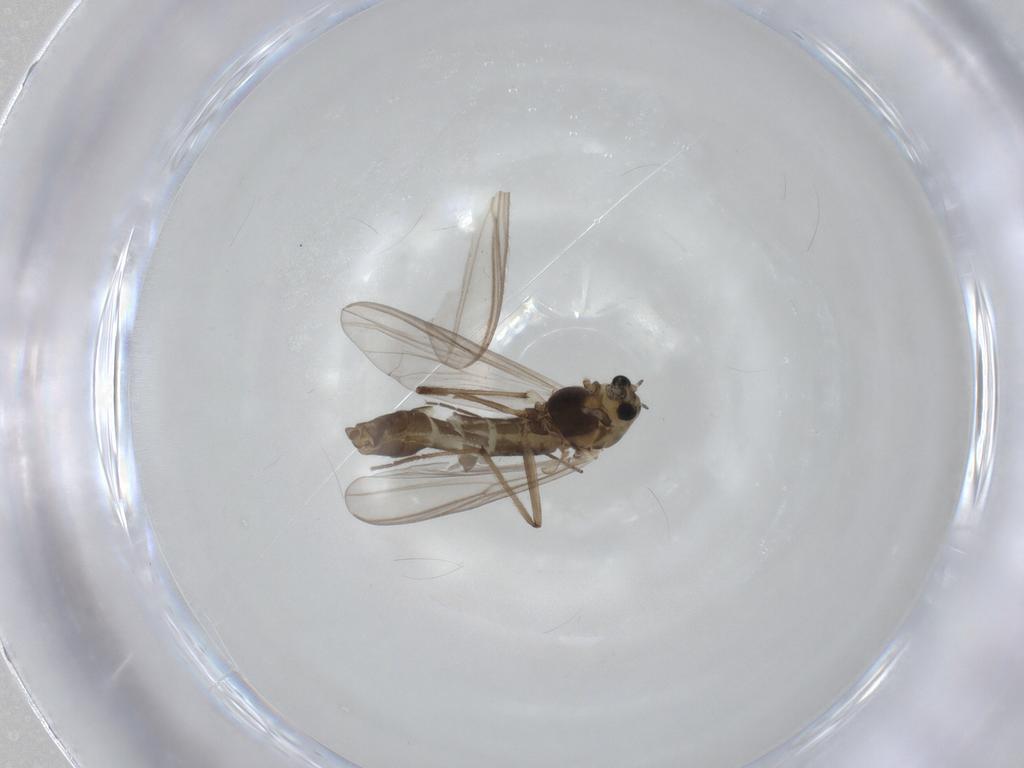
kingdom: Animalia
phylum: Arthropoda
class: Insecta
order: Diptera
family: Chironomidae
